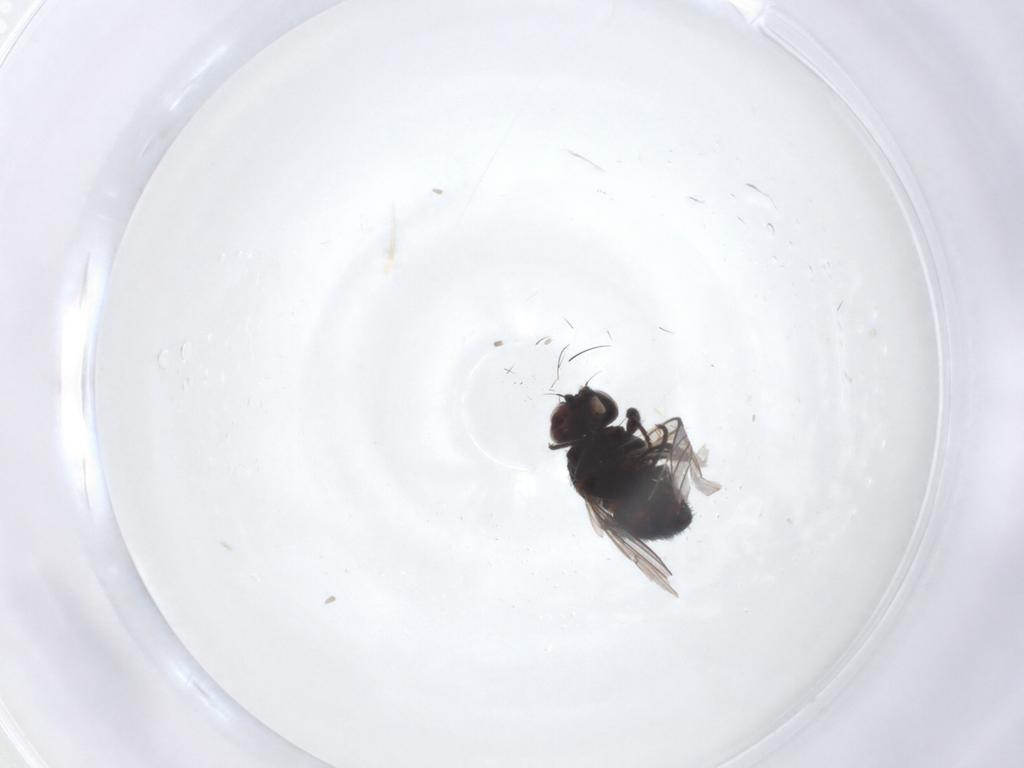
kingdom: Animalia
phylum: Arthropoda
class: Insecta
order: Diptera
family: Agromyzidae
